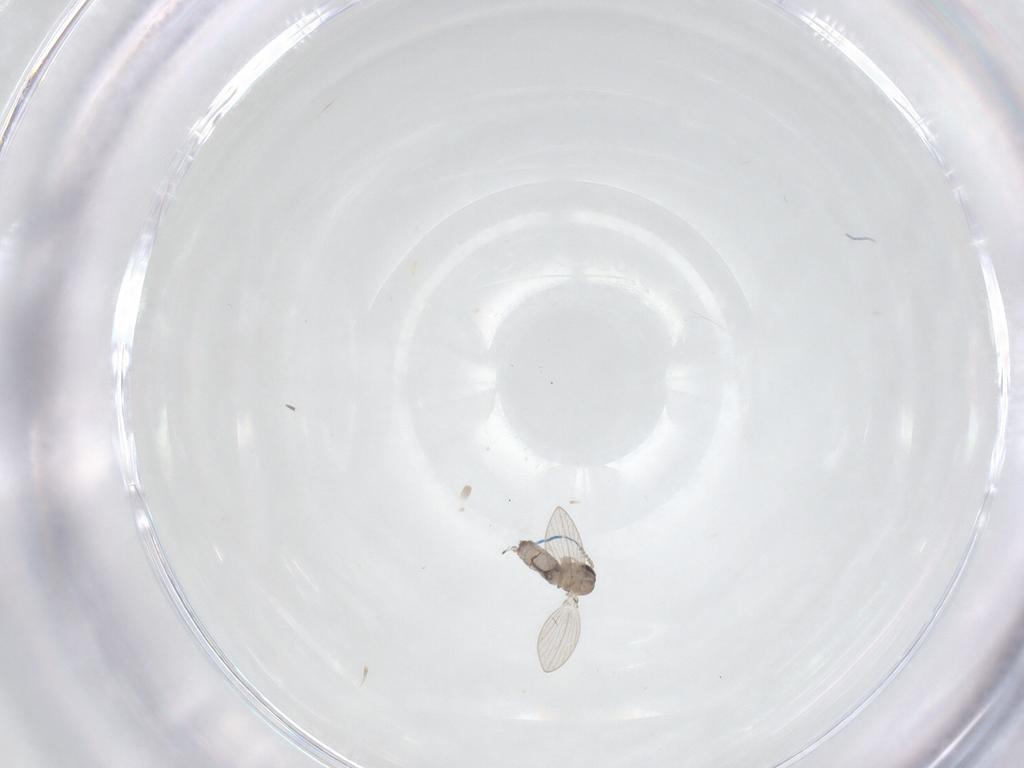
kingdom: Animalia
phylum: Arthropoda
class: Insecta
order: Diptera
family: Psychodidae
